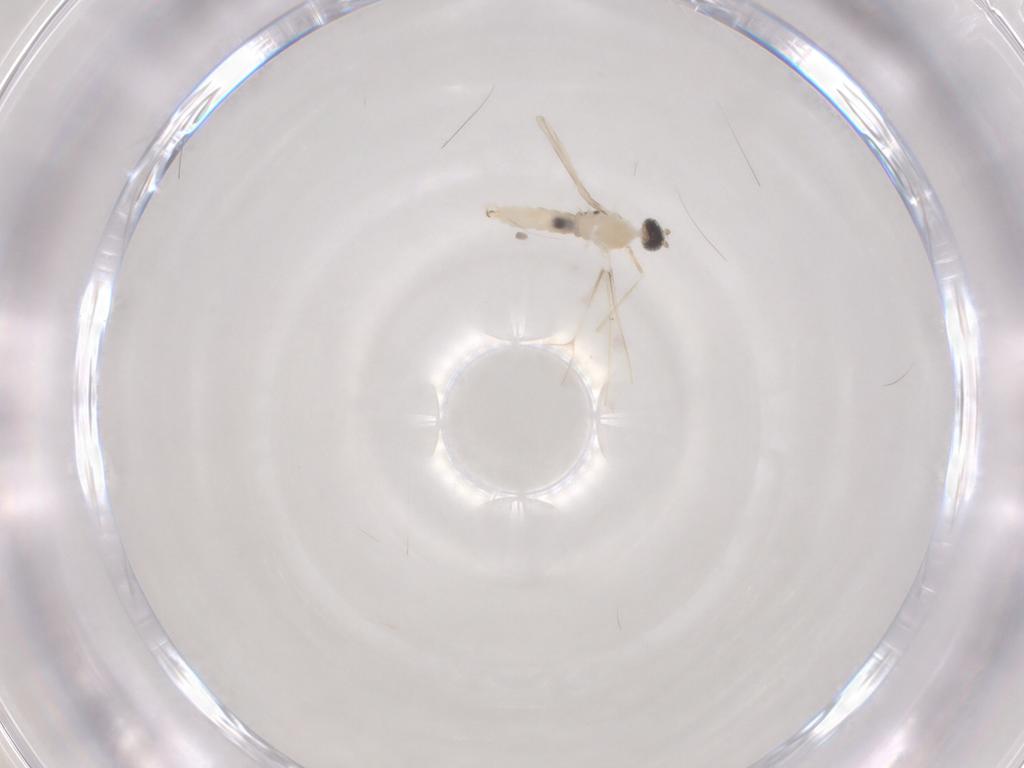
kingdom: Animalia
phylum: Arthropoda
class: Insecta
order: Diptera
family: Cecidomyiidae
